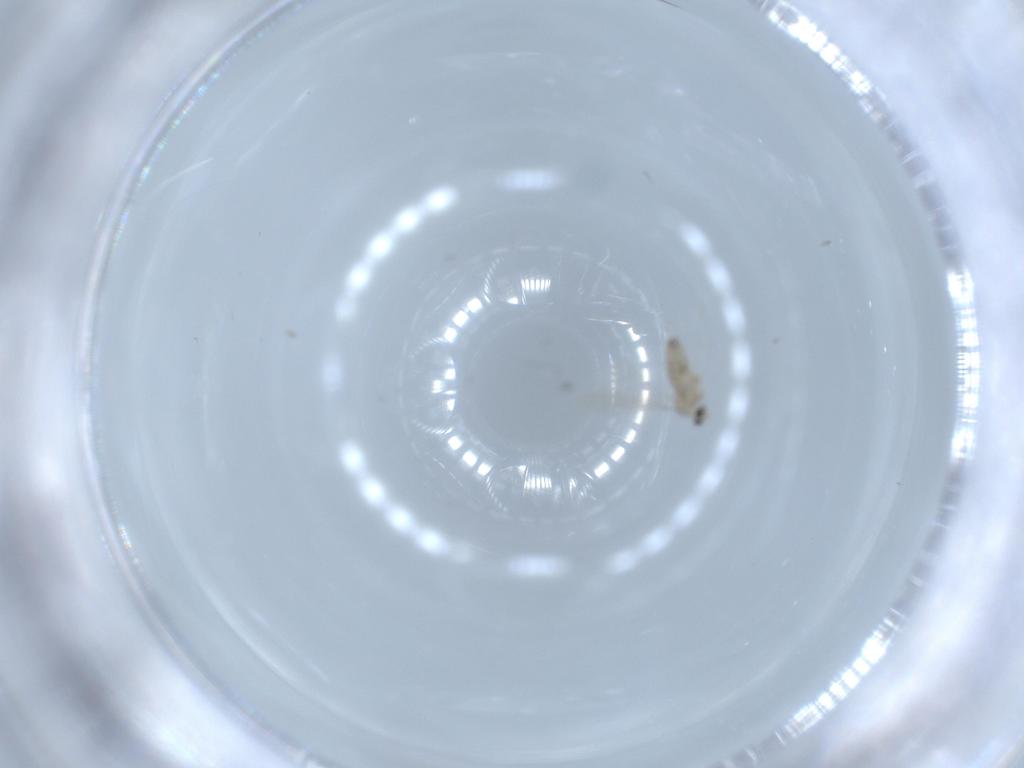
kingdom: Animalia
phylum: Arthropoda
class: Insecta
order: Diptera
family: Cecidomyiidae
